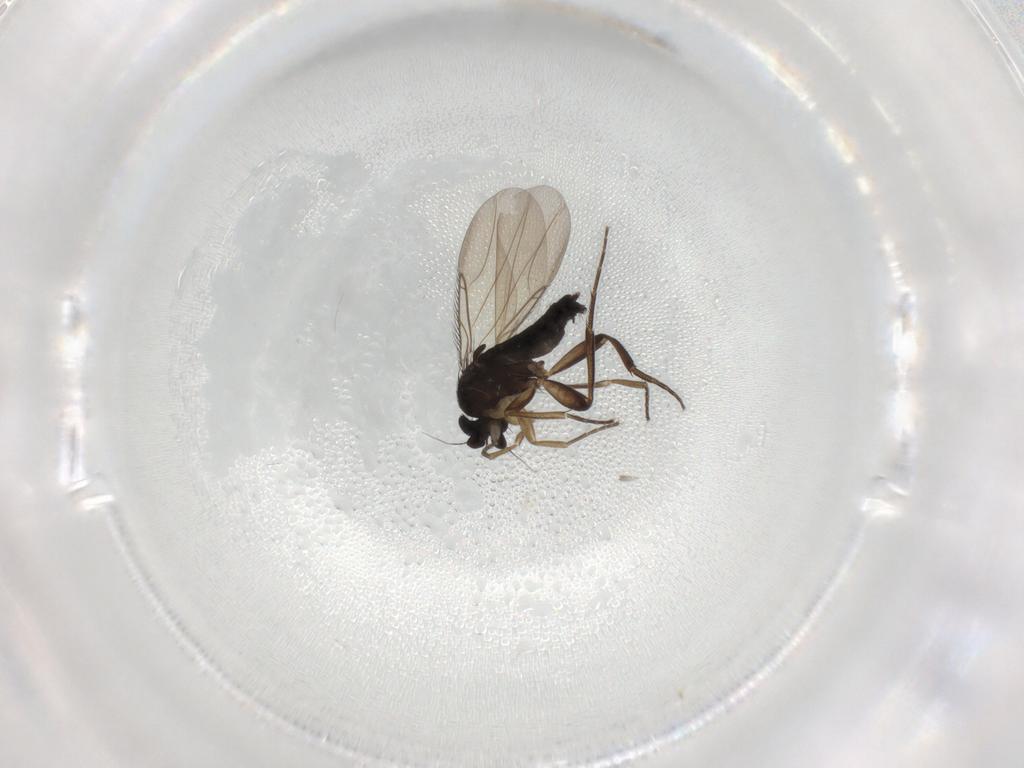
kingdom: Animalia
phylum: Arthropoda
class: Insecta
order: Diptera
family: Phoridae
